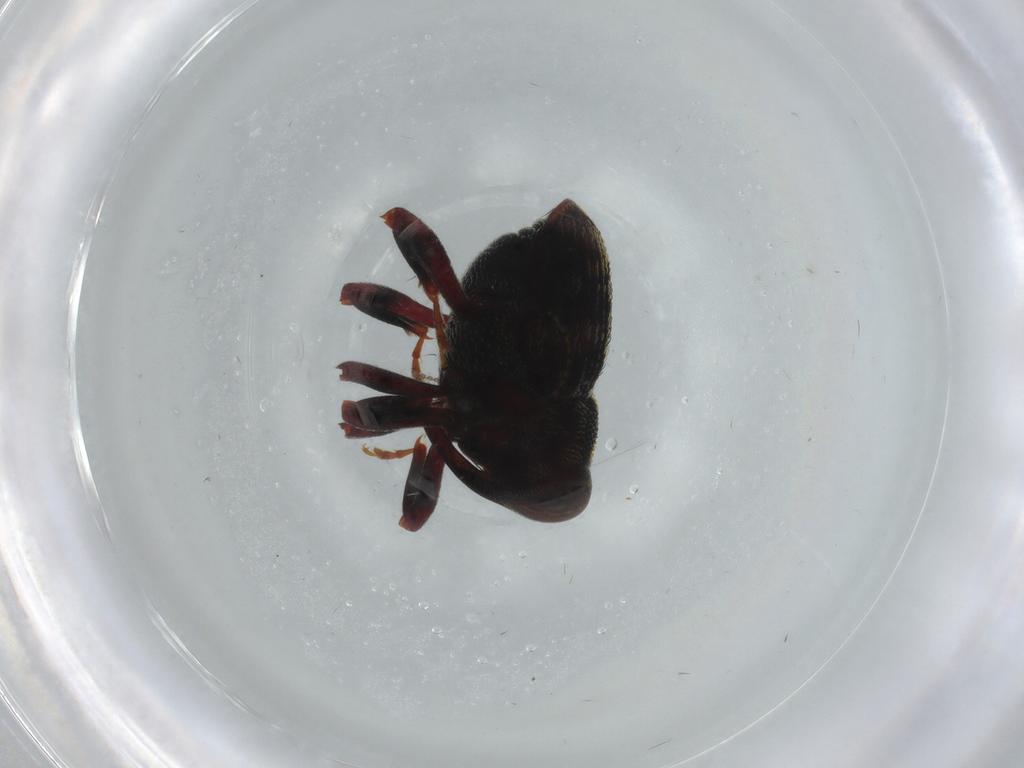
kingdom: Animalia
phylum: Arthropoda
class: Insecta
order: Coleoptera
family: Curculionidae
